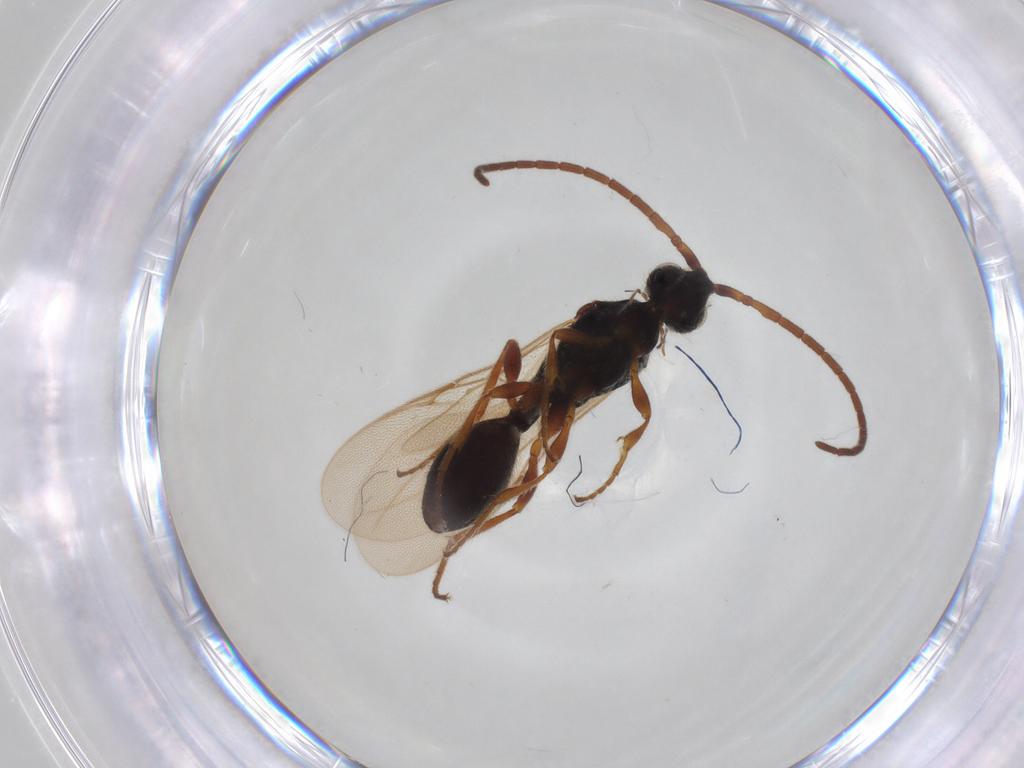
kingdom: Animalia
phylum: Arthropoda
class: Insecta
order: Hymenoptera
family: Diapriidae
